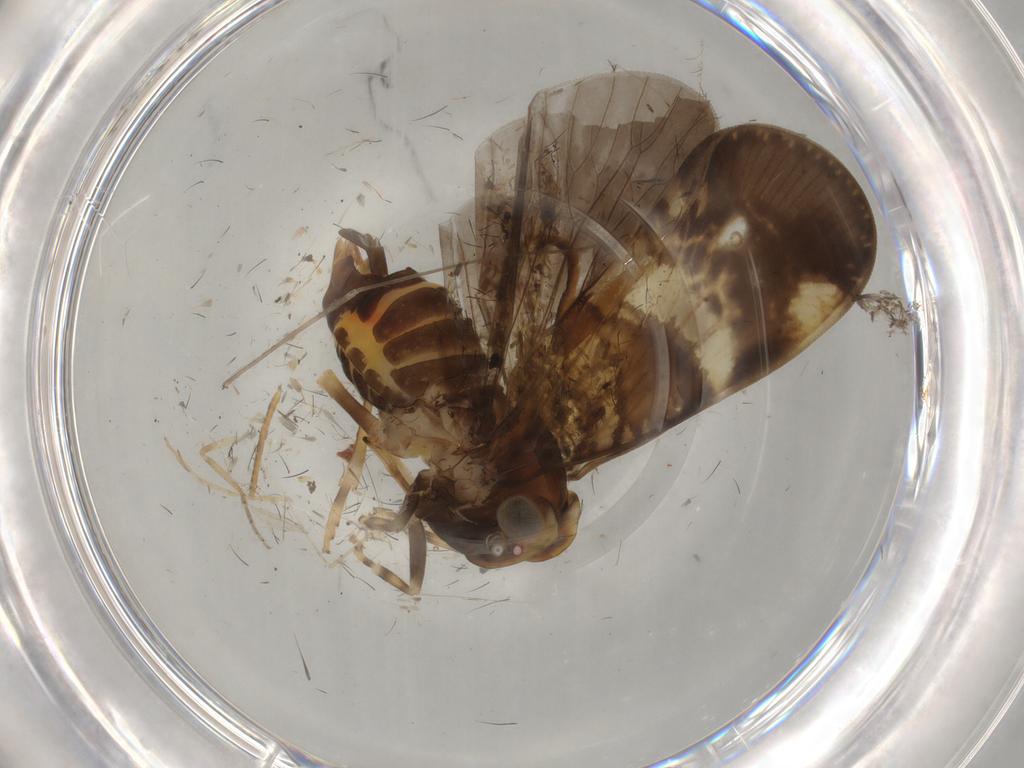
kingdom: Animalia
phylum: Arthropoda
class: Insecta
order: Hemiptera
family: Cixiidae
